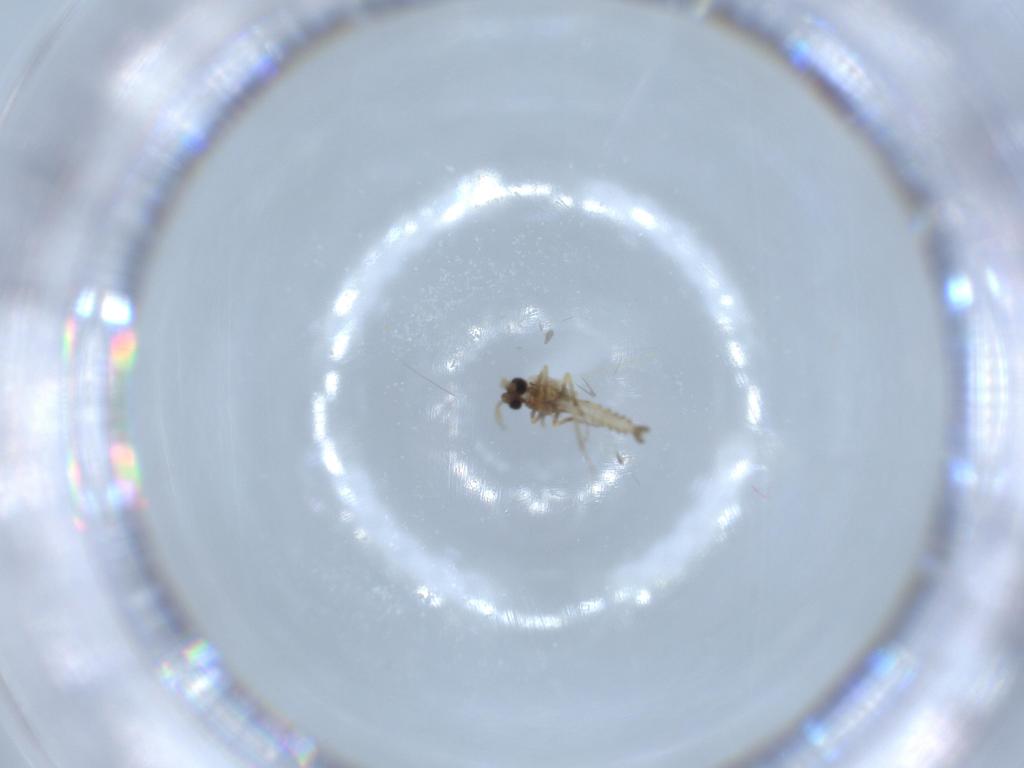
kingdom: Animalia
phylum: Arthropoda
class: Insecta
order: Diptera
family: Ceratopogonidae
